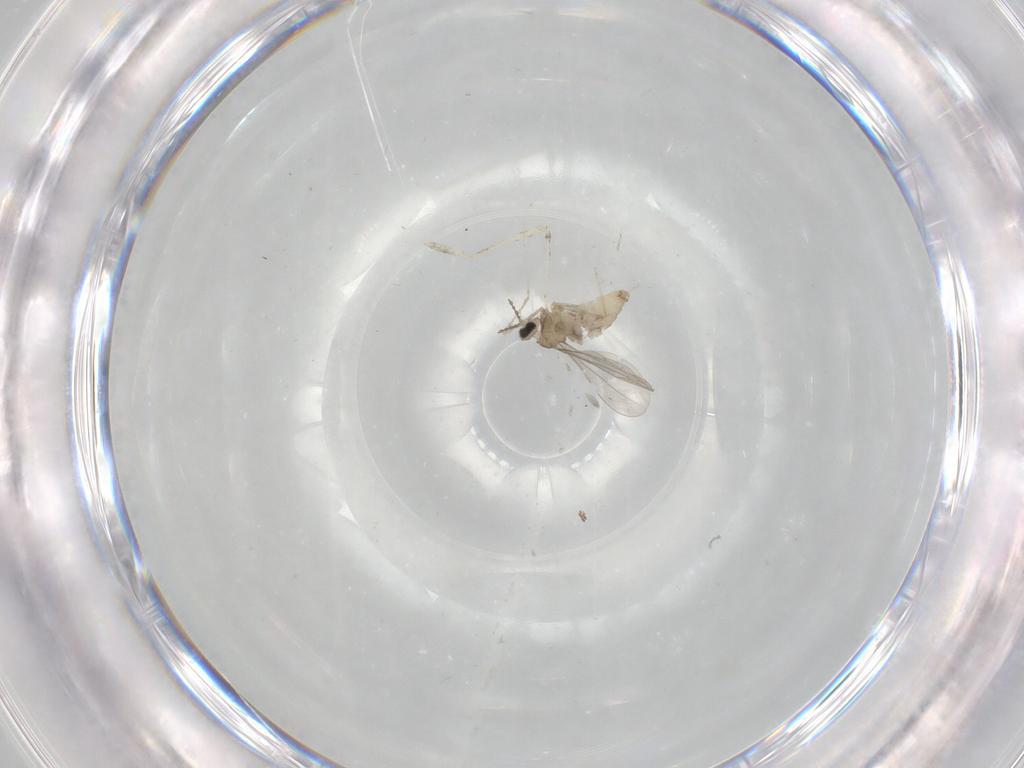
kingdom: Animalia
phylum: Arthropoda
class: Insecta
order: Diptera
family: Cecidomyiidae
